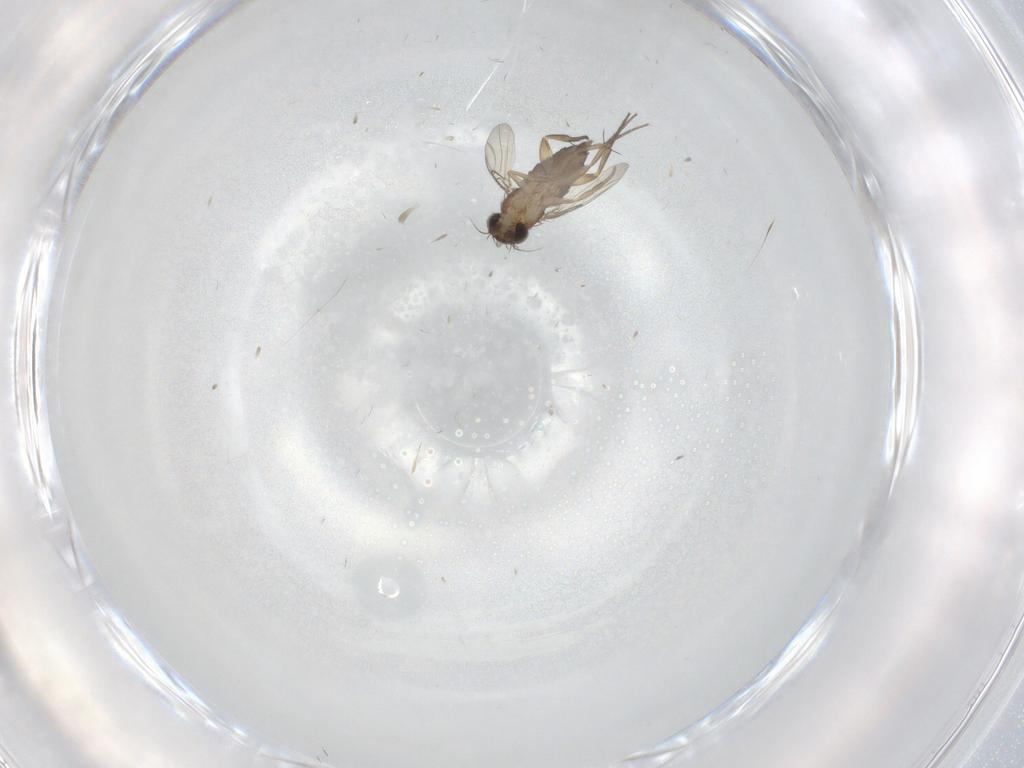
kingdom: Animalia
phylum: Arthropoda
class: Insecta
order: Diptera
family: Phoridae
